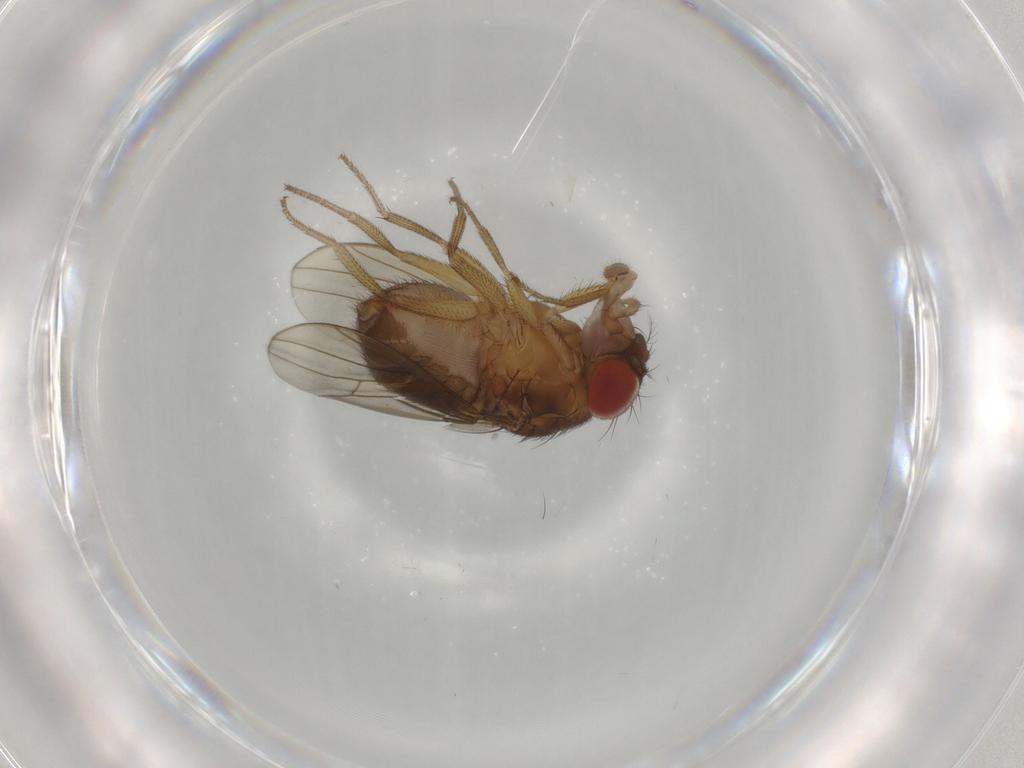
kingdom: Animalia
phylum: Arthropoda
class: Insecta
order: Diptera
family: Drosophilidae
